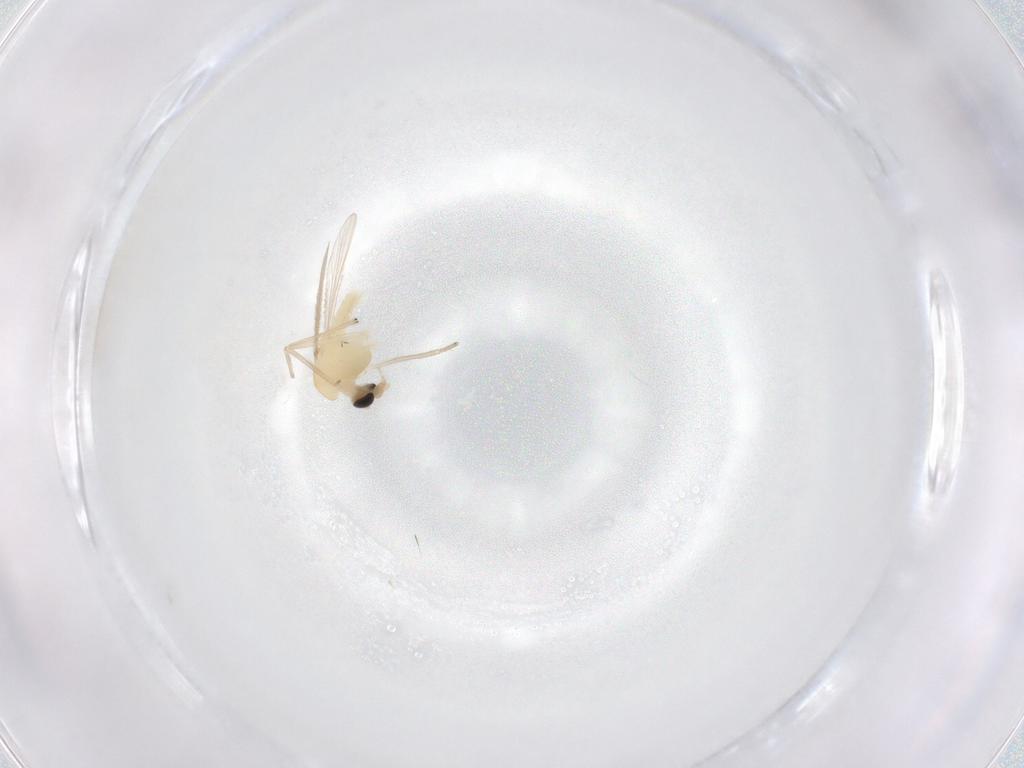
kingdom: Animalia
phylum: Arthropoda
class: Insecta
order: Diptera
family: Chironomidae
